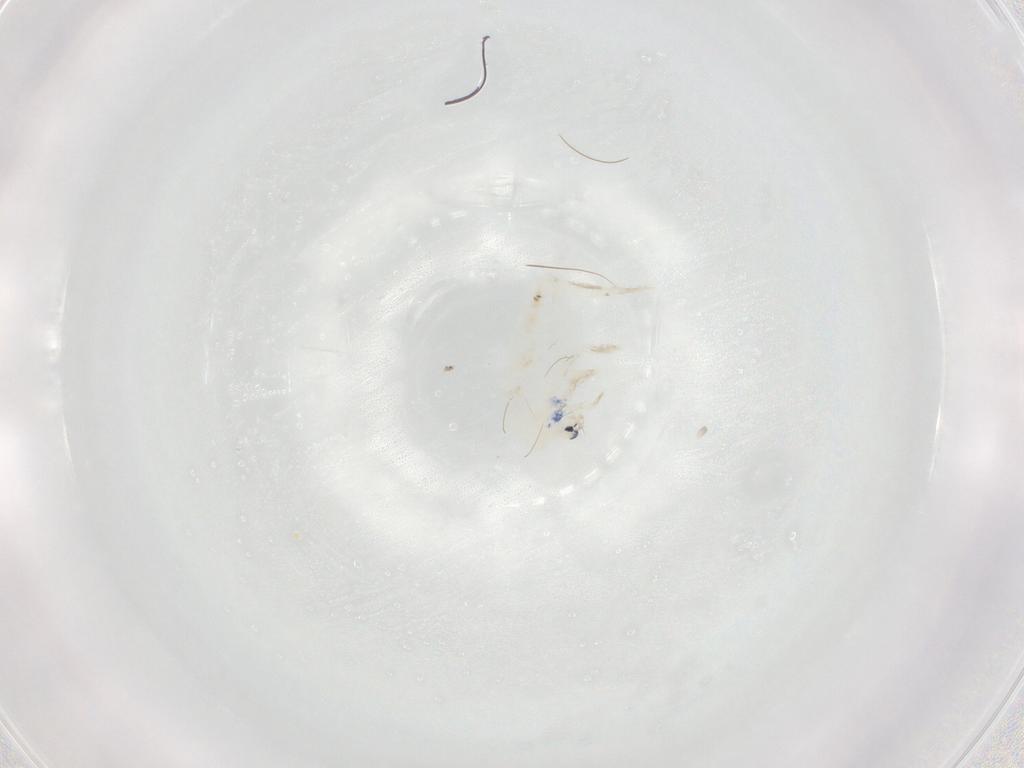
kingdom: Animalia
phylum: Arthropoda
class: Collembola
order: Entomobryomorpha
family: Entomobryidae
